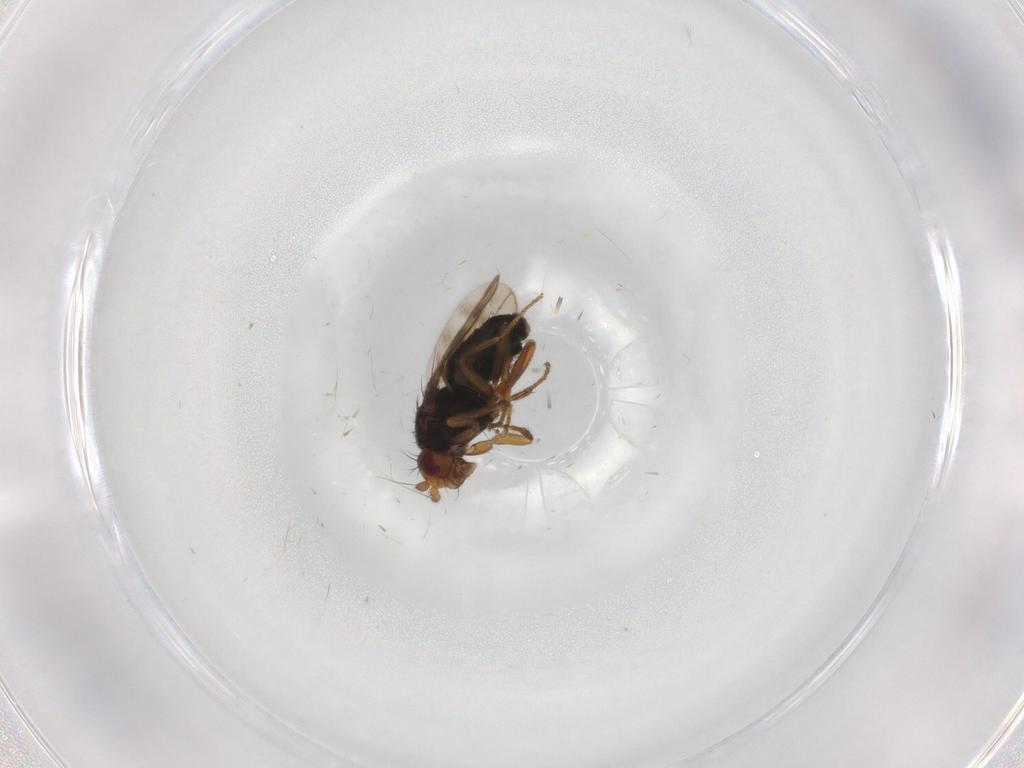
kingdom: Animalia
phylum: Arthropoda
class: Insecta
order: Diptera
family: Sphaeroceridae
